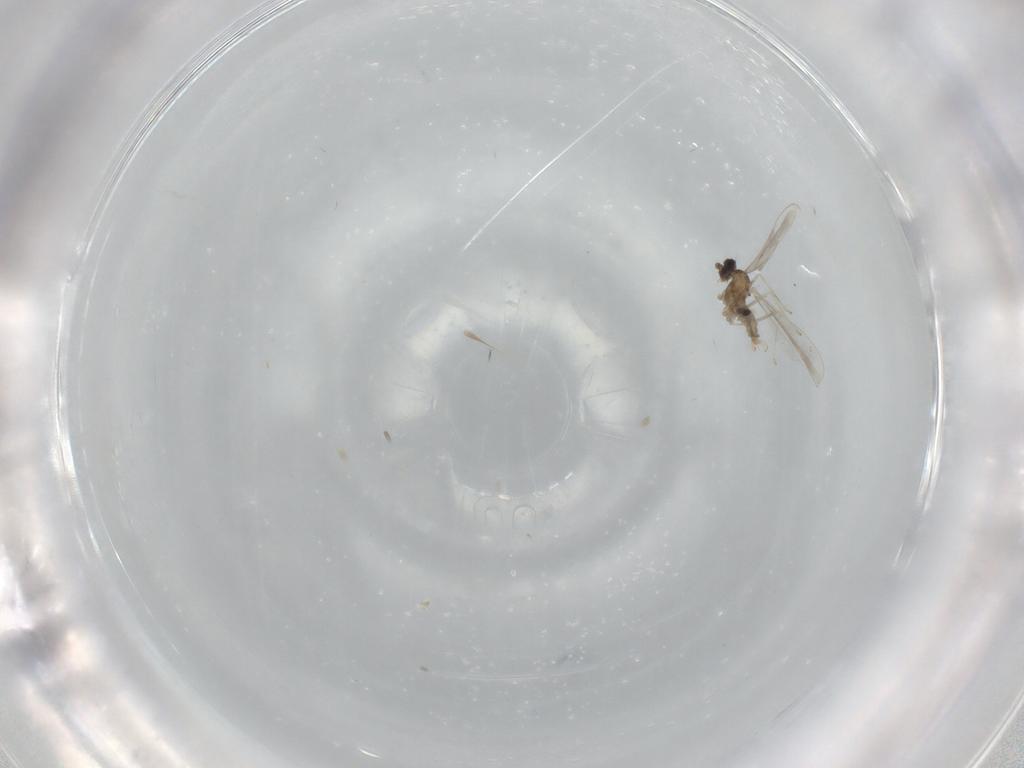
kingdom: Animalia
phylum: Arthropoda
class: Insecta
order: Diptera
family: Cecidomyiidae
